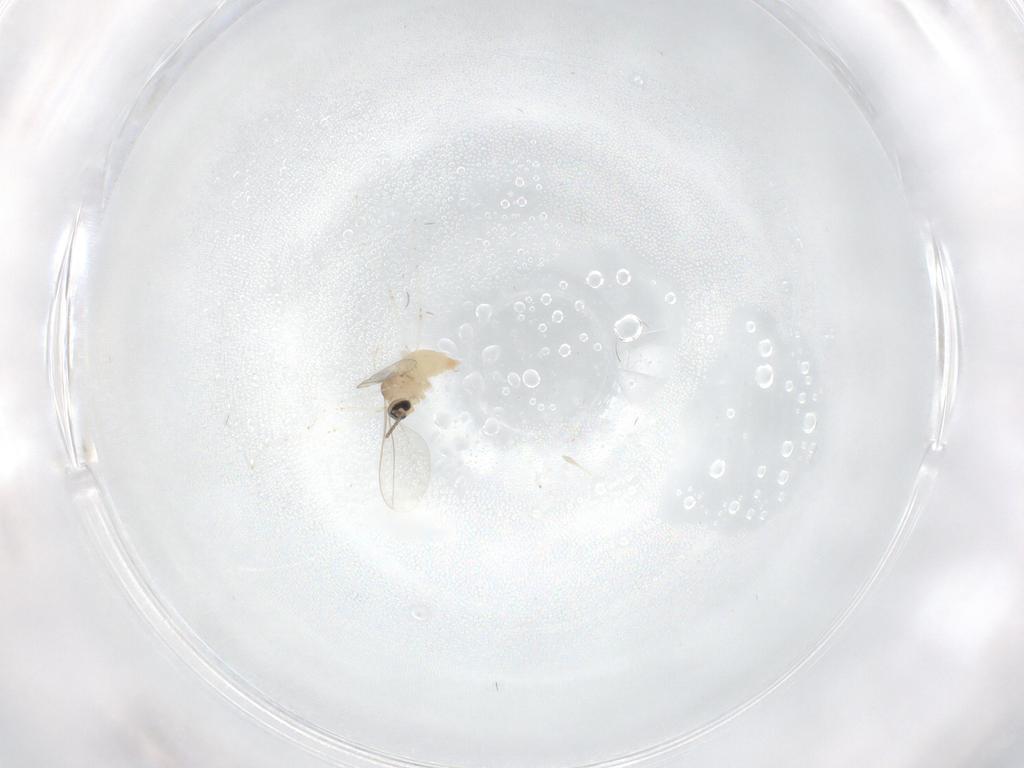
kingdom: Animalia
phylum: Arthropoda
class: Insecta
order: Diptera
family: Cecidomyiidae
